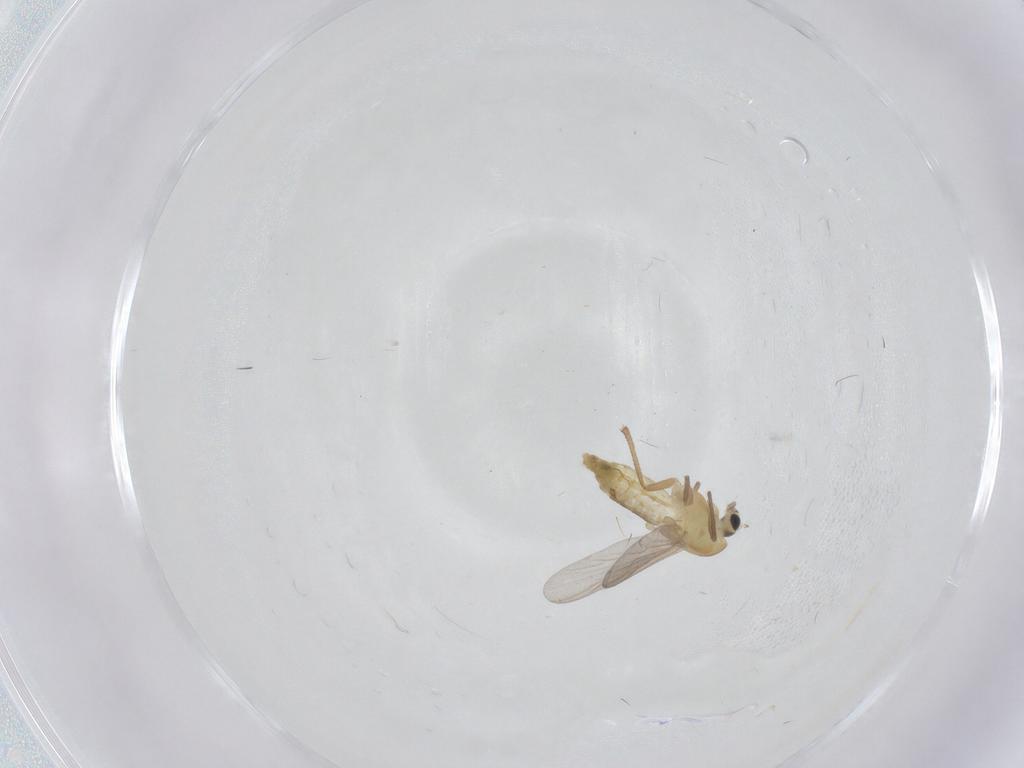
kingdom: Animalia
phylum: Arthropoda
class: Insecta
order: Diptera
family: Chironomidae
